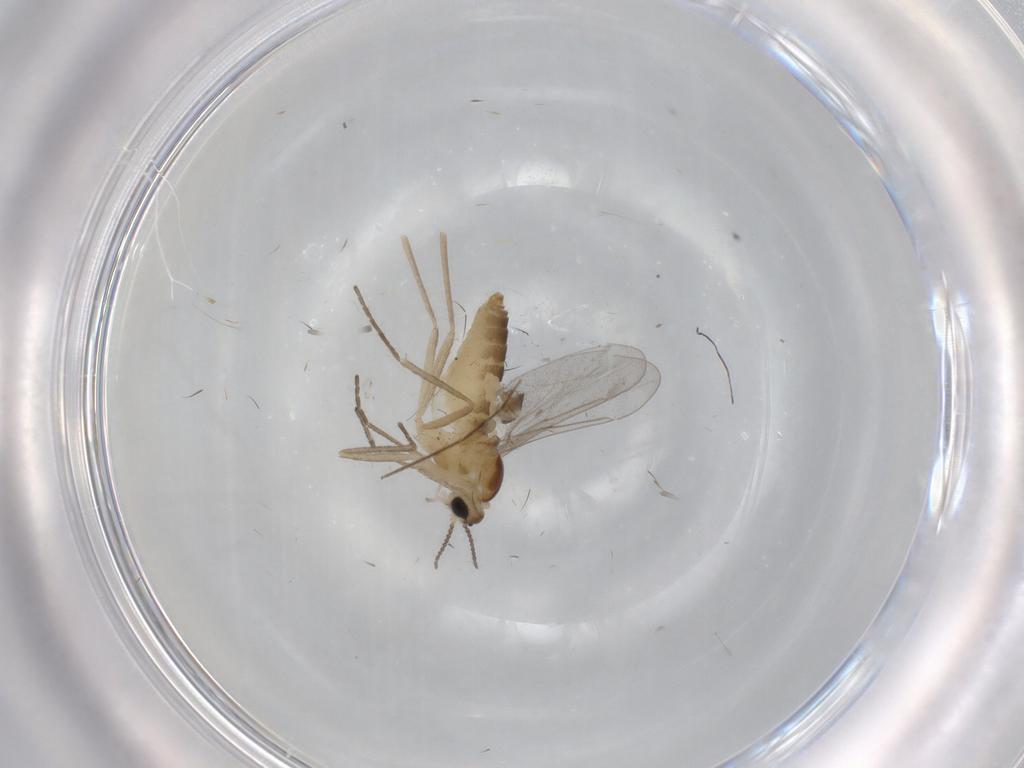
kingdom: Animalia
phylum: Arthropoda
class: Insecta
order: Diptera
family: Cecidomyiidae
